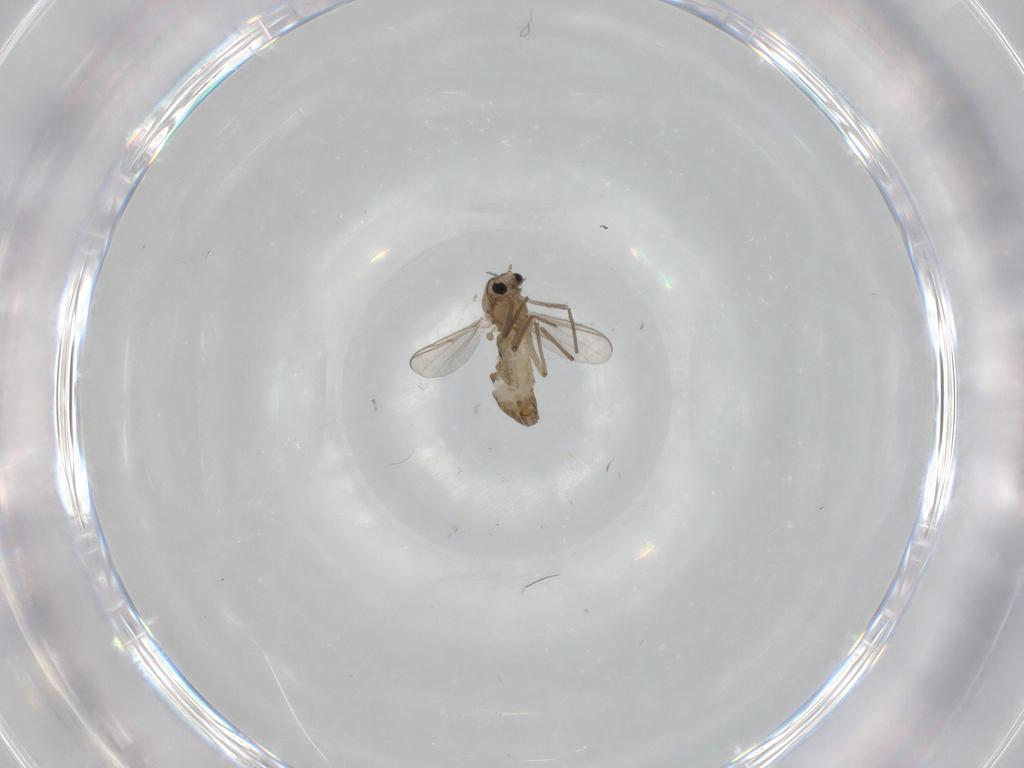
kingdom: Animalia
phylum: Arthropoda
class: Insecta
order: Diptera
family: Chironomidae
